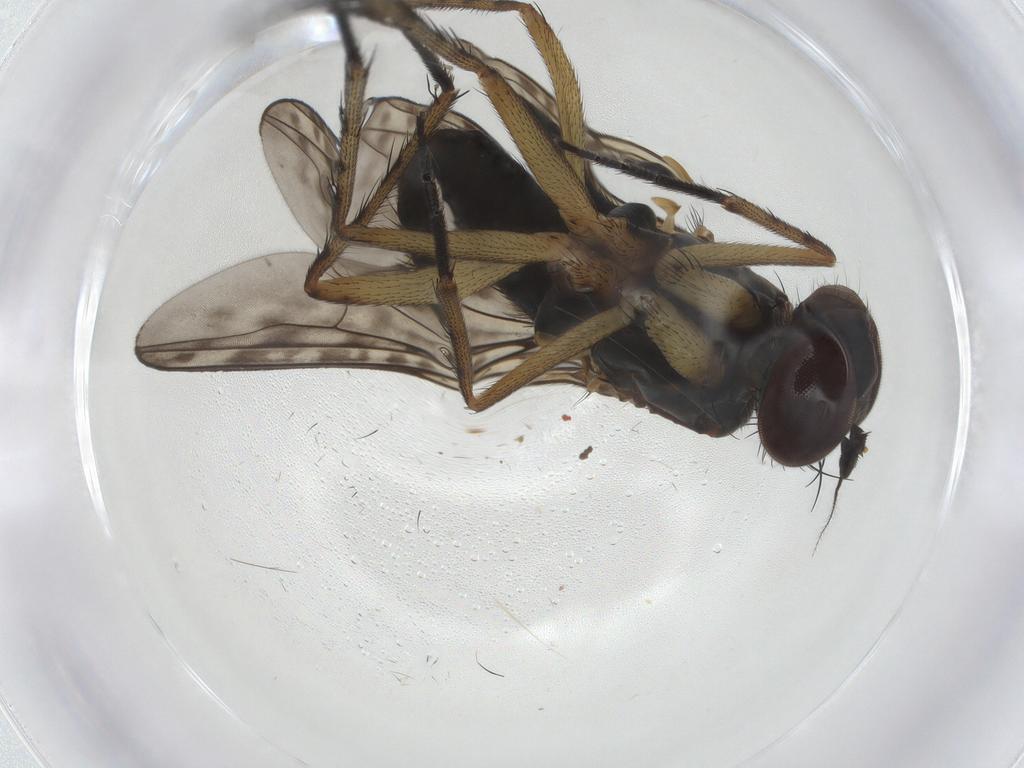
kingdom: Animalia
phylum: Arthropoda
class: Insecta
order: Diptera
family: Dolichopodidae
